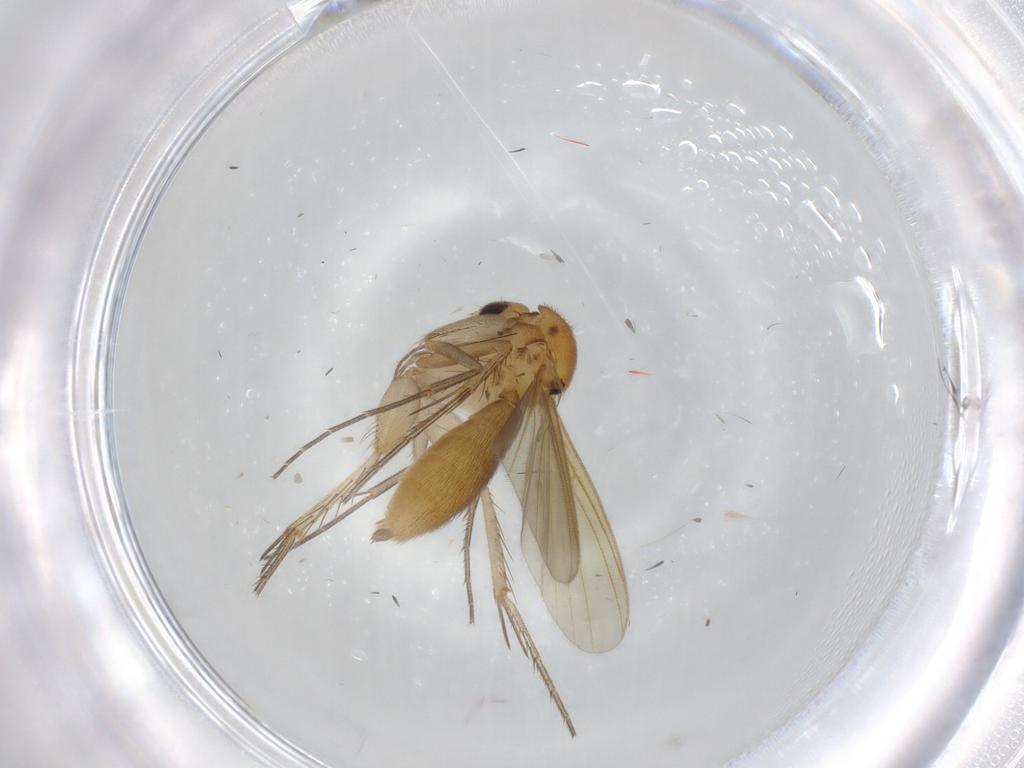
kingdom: Animalia
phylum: Arthropoda
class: Insecta
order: Diptera
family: Mycetophilidae
